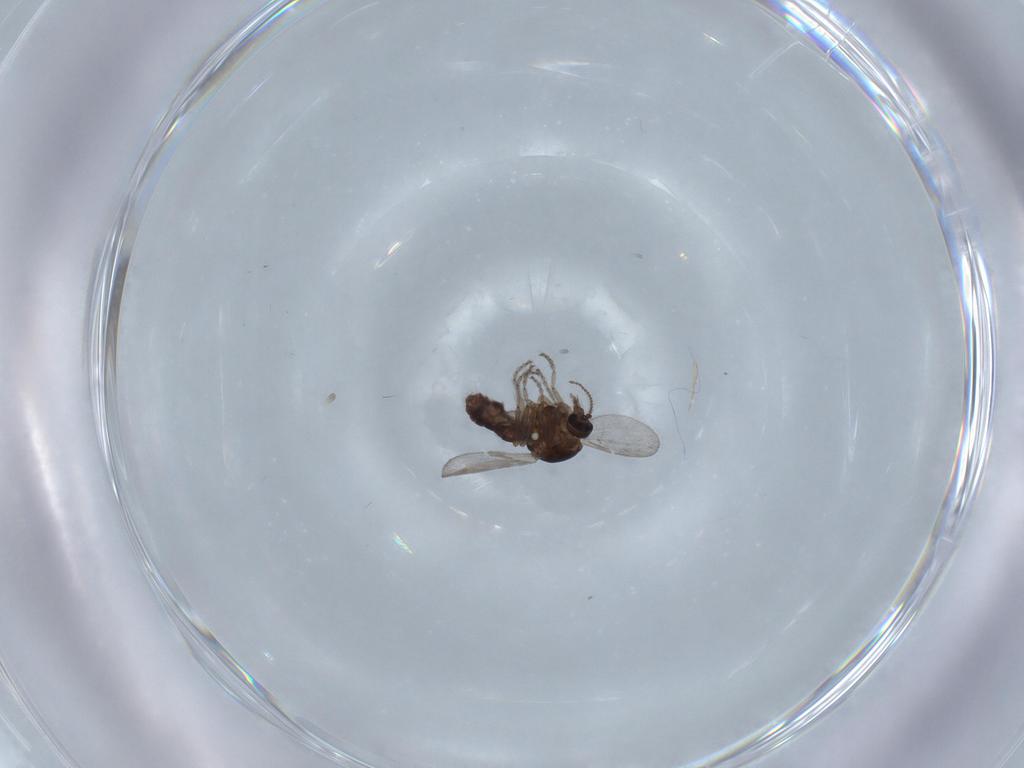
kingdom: Animalia
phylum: Arthropoda
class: Insecta
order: Diptera
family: Ceratopogonidae
